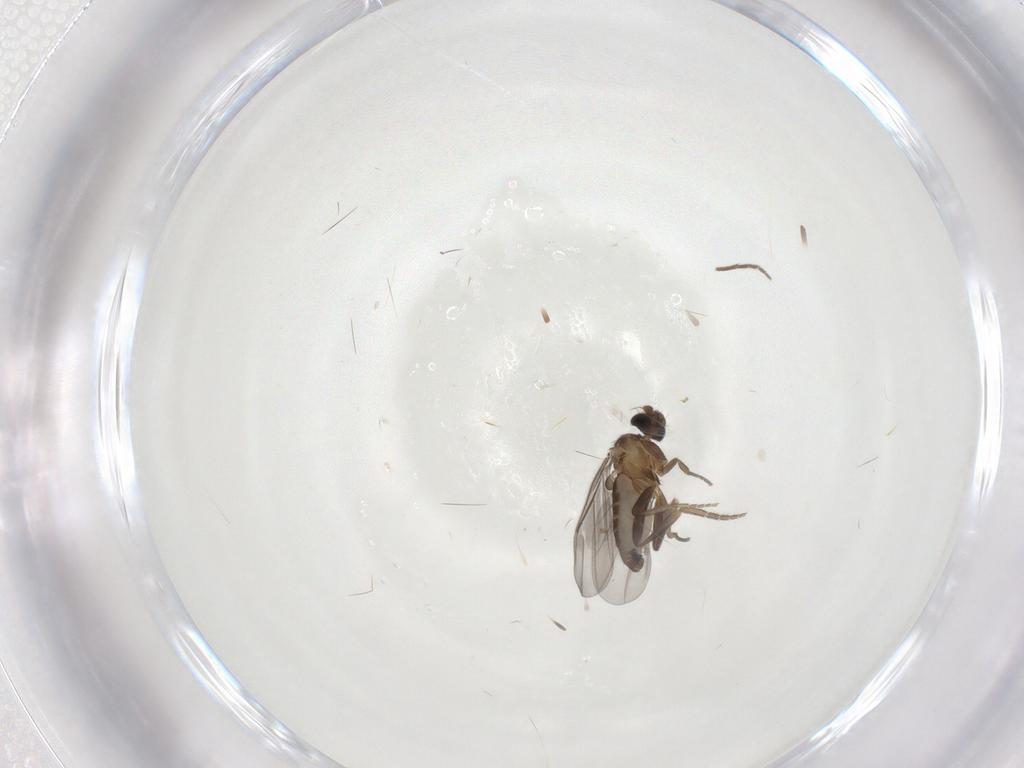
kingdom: Animalia
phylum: Arthropoda
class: Insecta
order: Diptera
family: Phoridae
